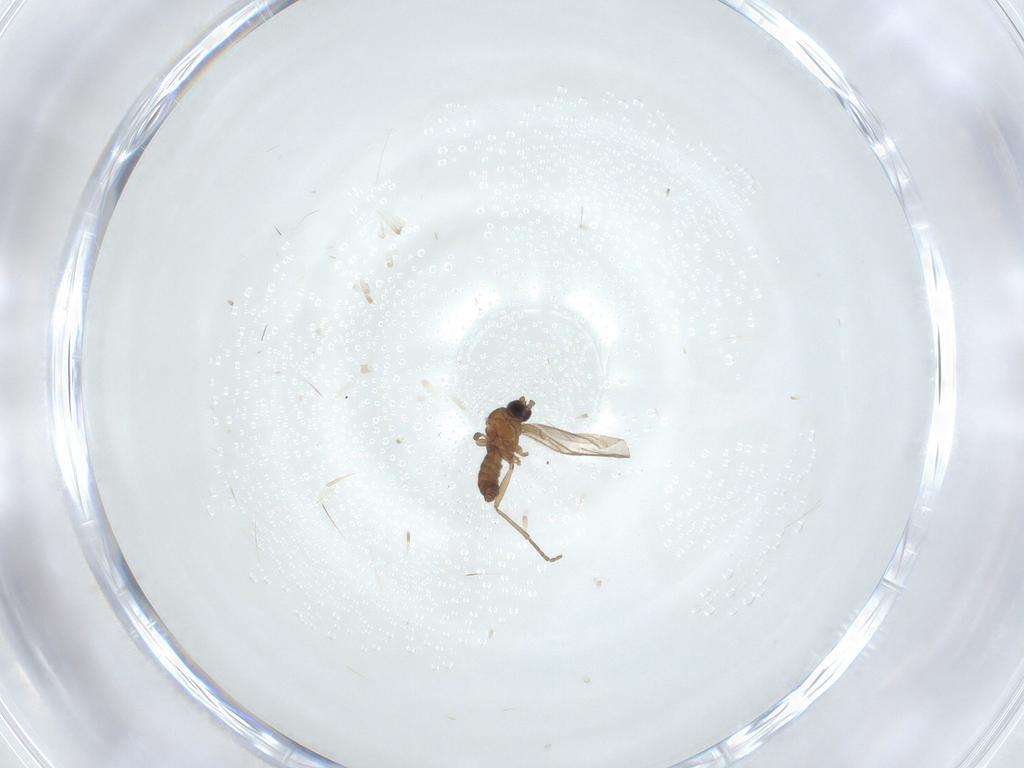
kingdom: Animalia
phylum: Arthropoda
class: Insecta
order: Diptera
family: Sciaridae
